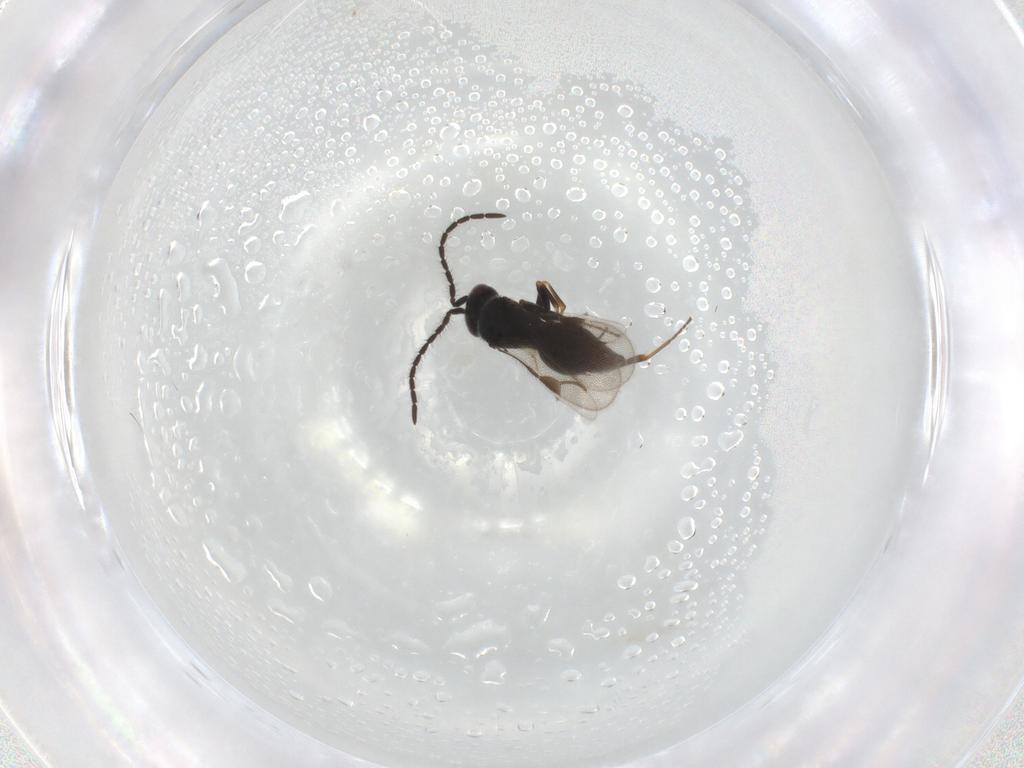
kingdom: Animalia
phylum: Arthropoda
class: Insecta
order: Hymenoptera
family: Megaspilidae
